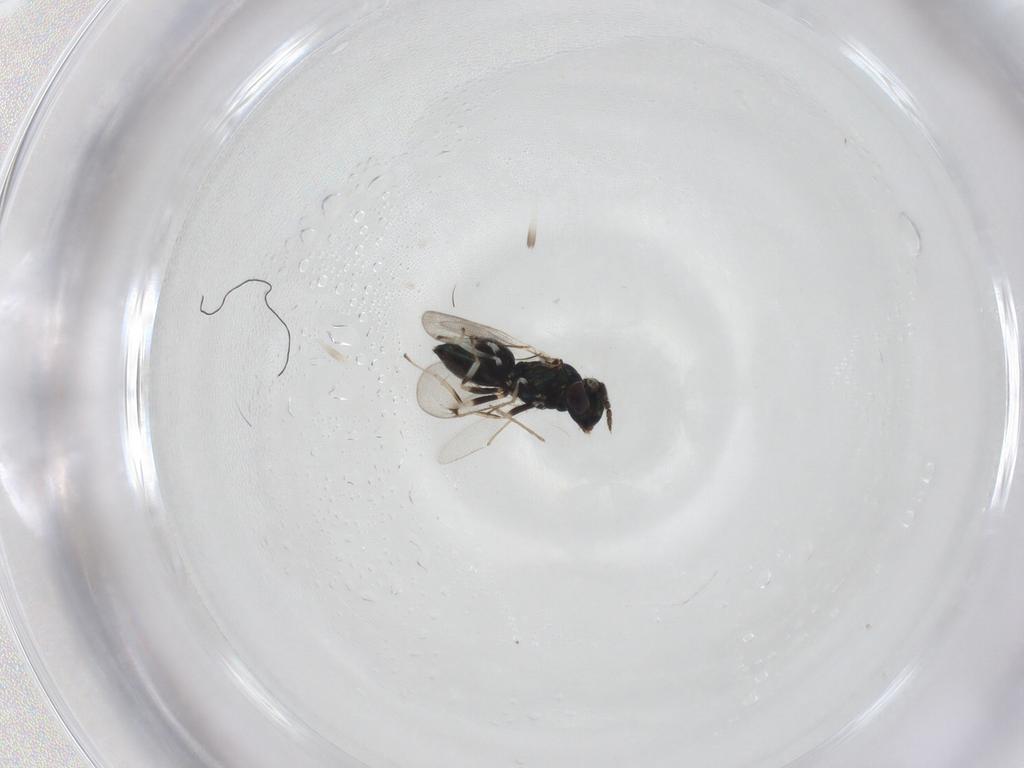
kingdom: Animalia
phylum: Arthropoda
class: Insecta
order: Hymenoptera
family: Eulophidae
